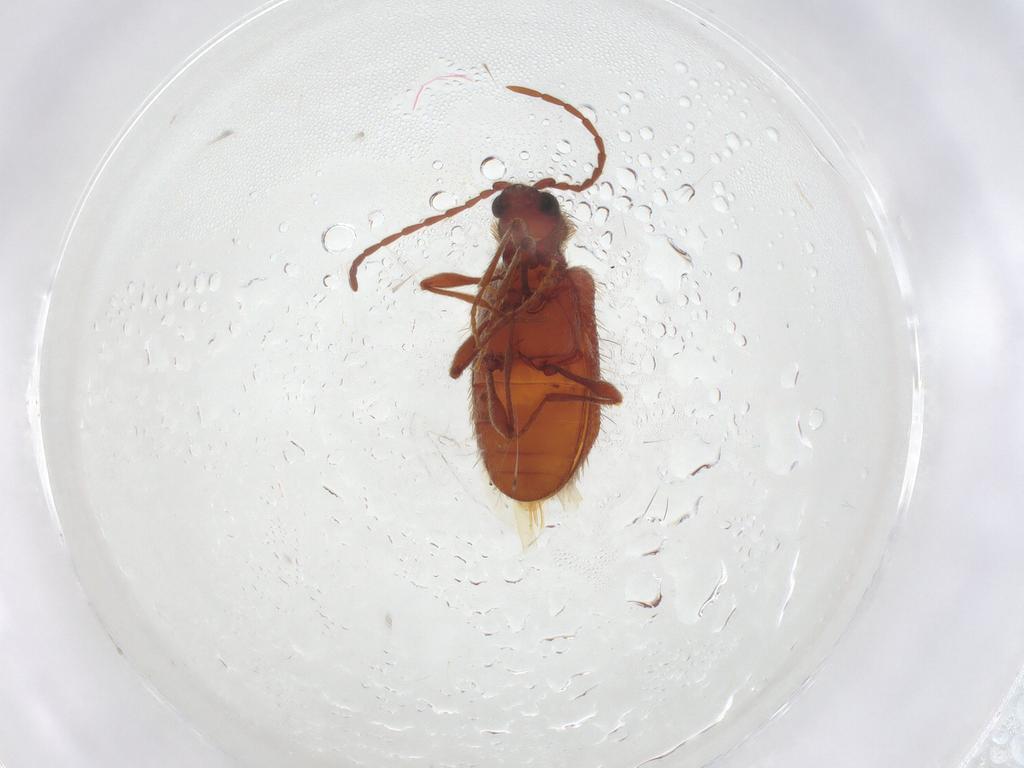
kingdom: Animalia
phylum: Arthropoda
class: Insecta
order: Coleoptera
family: Ptinidae
